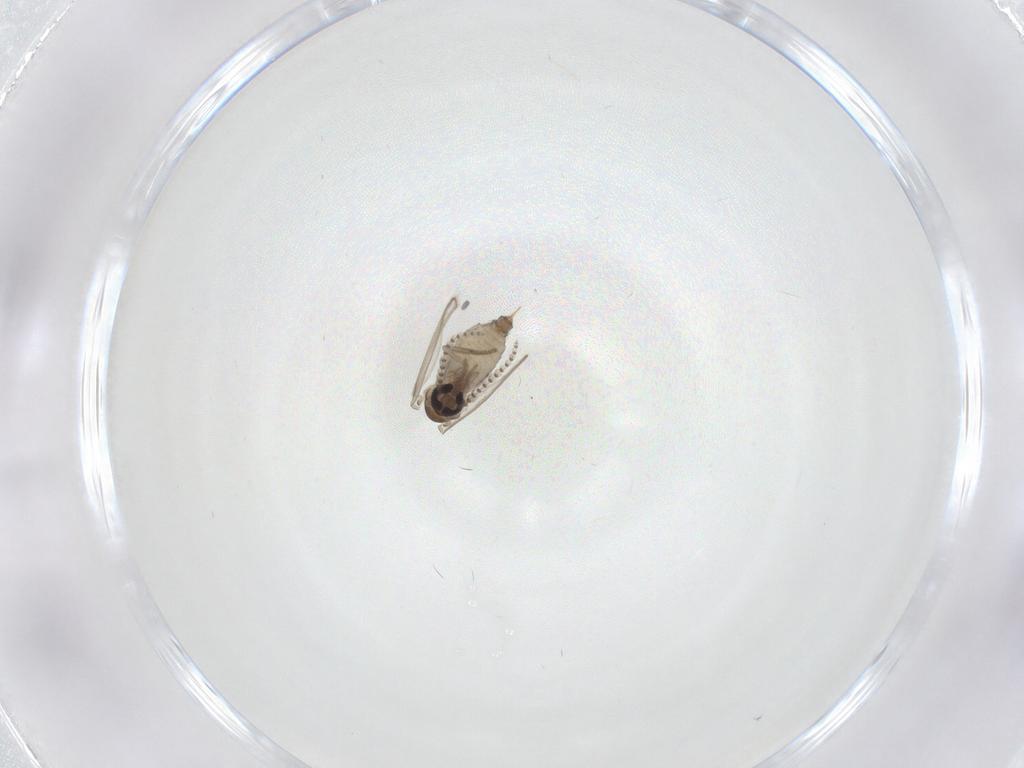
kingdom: Animalia
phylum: Arthropoda
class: Insecta
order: Diptera
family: Ceratopogonidae
